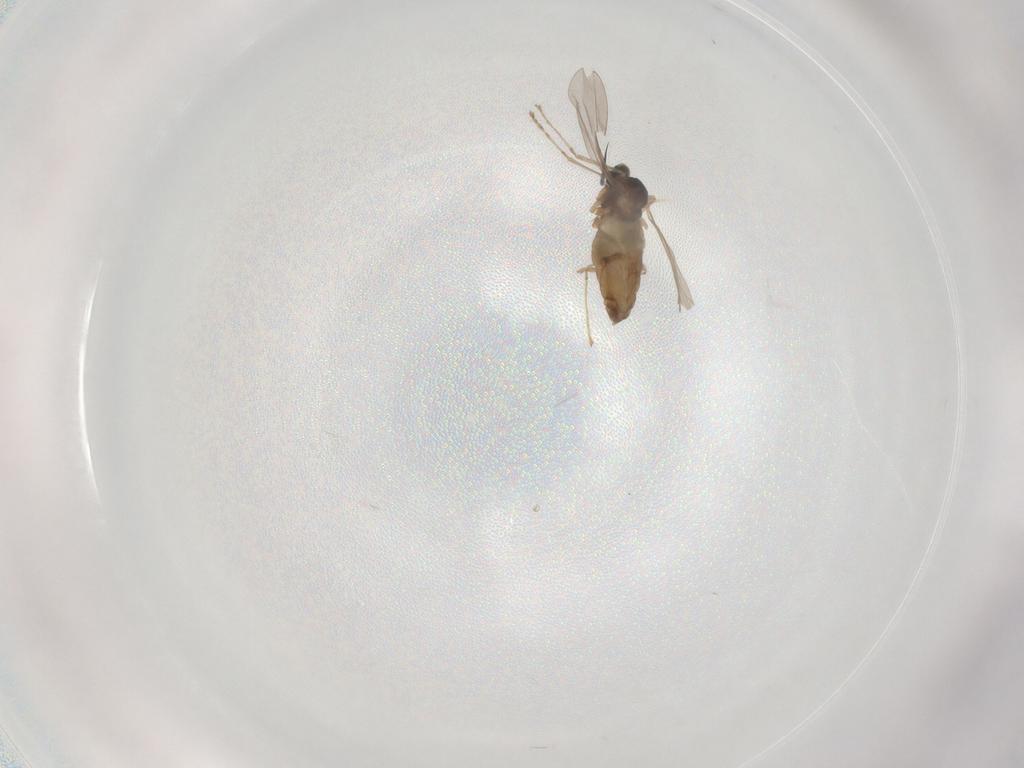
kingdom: Animalia
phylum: Arthropoda
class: Insecta
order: Diptera
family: Cecidomyiidae
